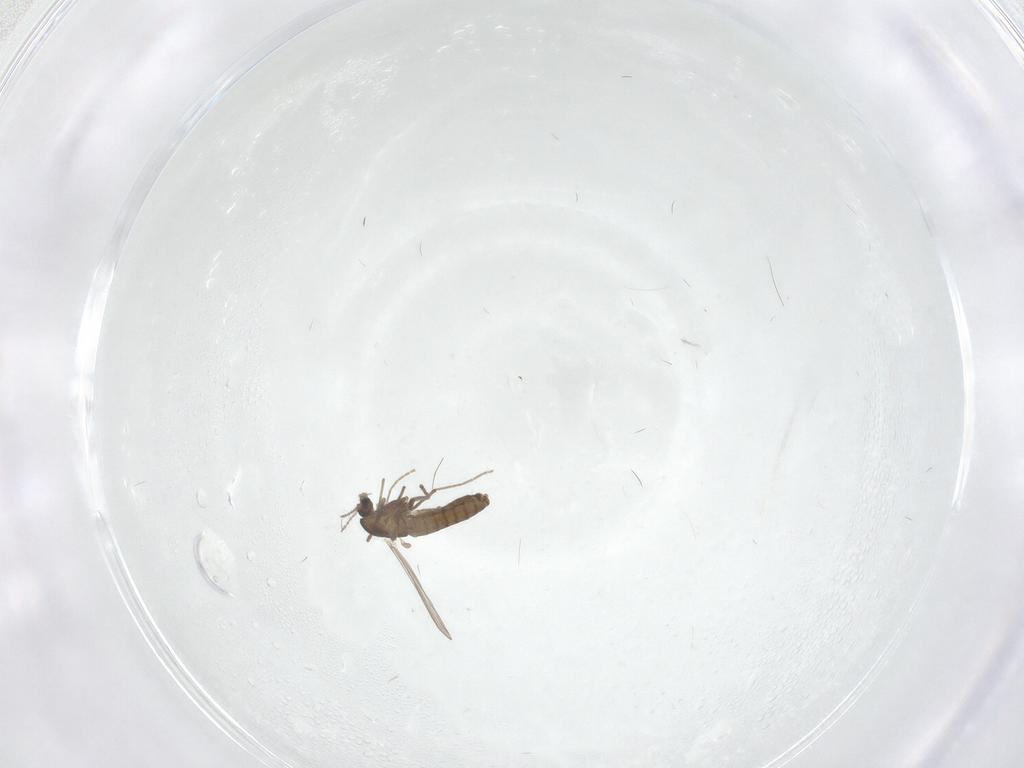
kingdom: Animalia
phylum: Arthropoda
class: Insecta
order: Diptera
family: Chironomidae
